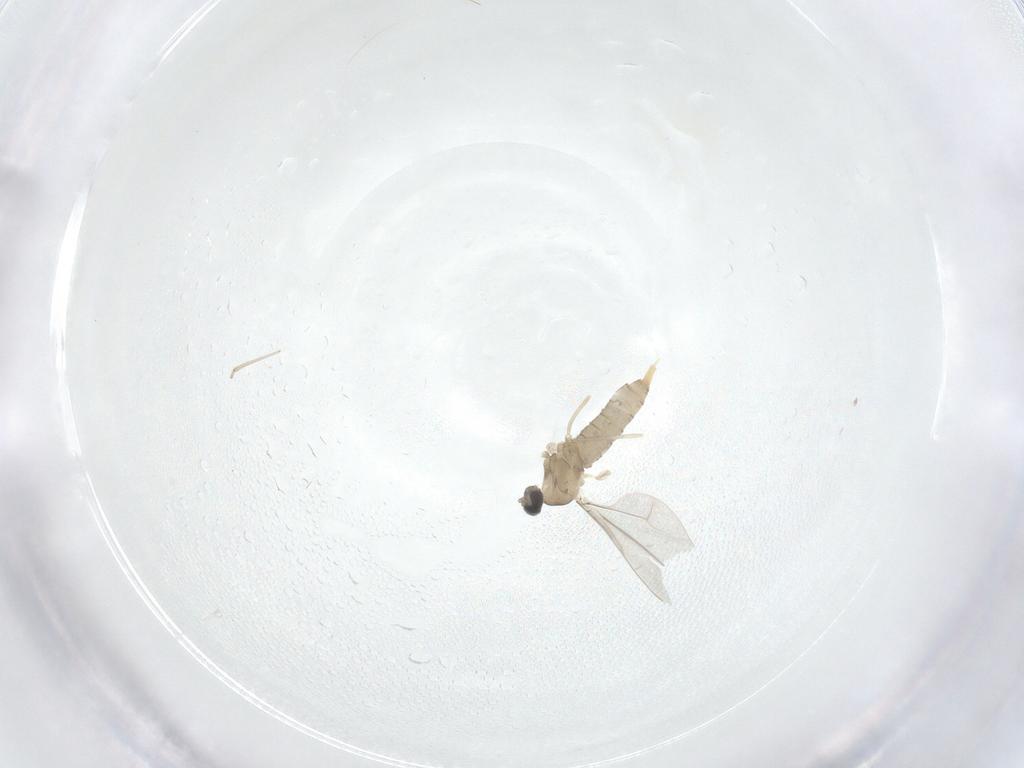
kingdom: Animalia
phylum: Arthropoda
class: Insecta
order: Diptera
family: Cecidomyiidae
